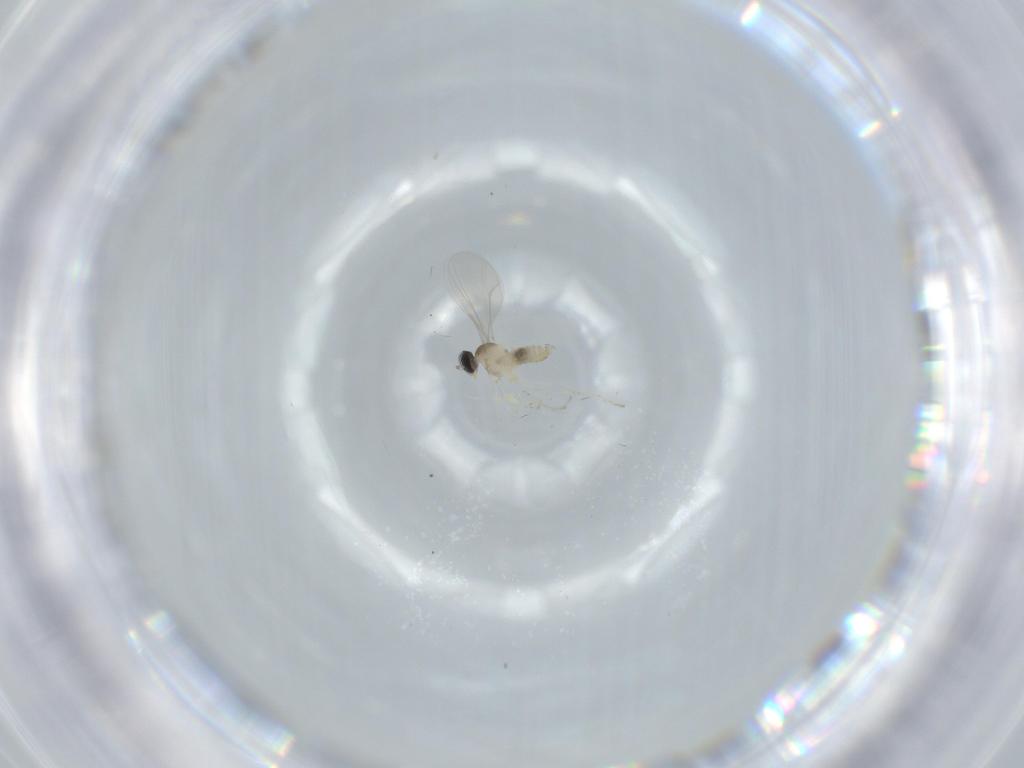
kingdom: Animalia
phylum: Arthropoda
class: Insecta
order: Diptera
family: Cecidomyiidae
